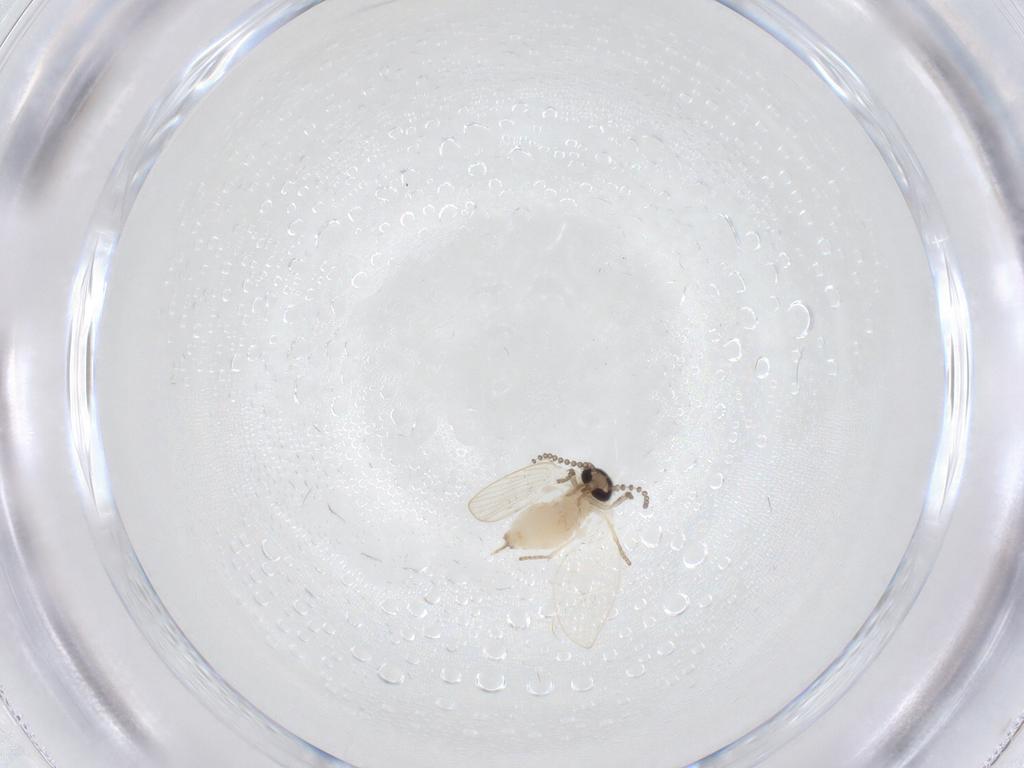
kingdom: Animalia
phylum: Arthropoda
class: Insecta
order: Diptera
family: Psychodidae
